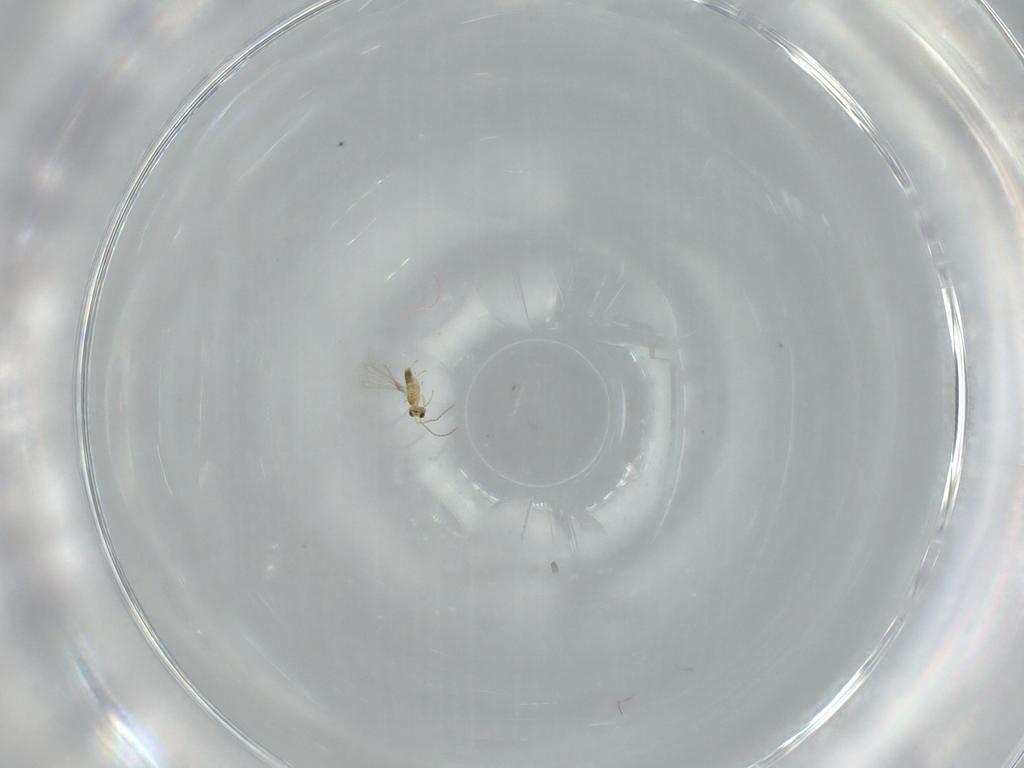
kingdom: Animalia
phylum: Arthropoda
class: Insecta
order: Hymenoptera
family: Mymaridae
